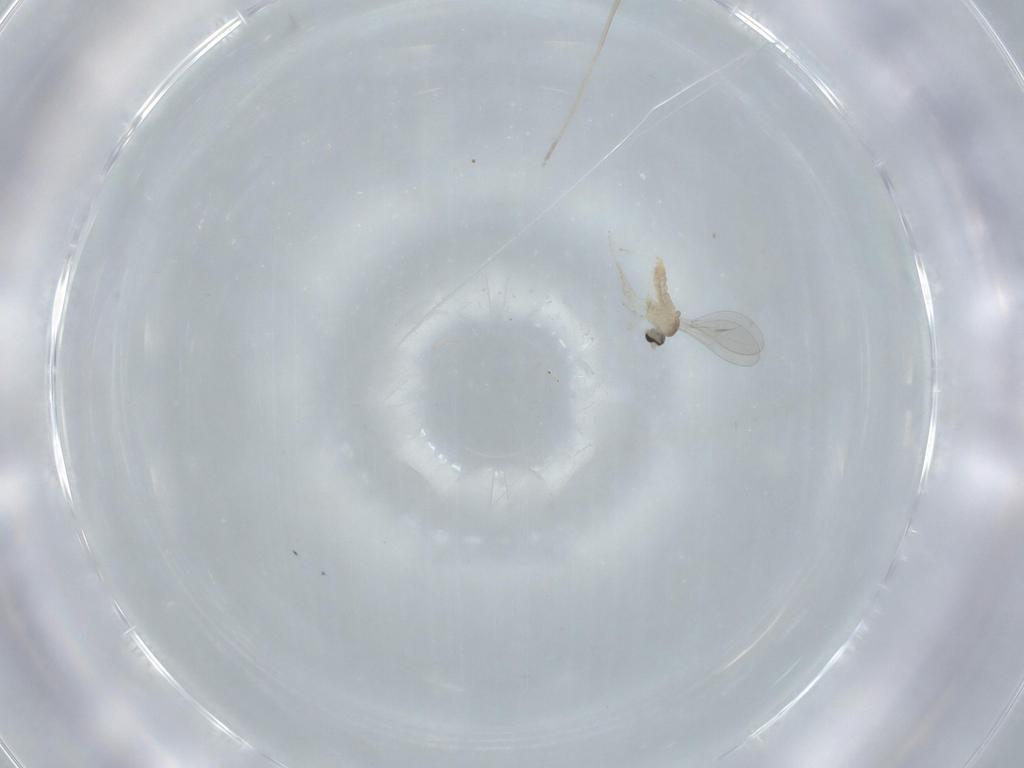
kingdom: Animalia
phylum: Arthropoda
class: Insecta
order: Diptera
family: Cecidomyiidae
